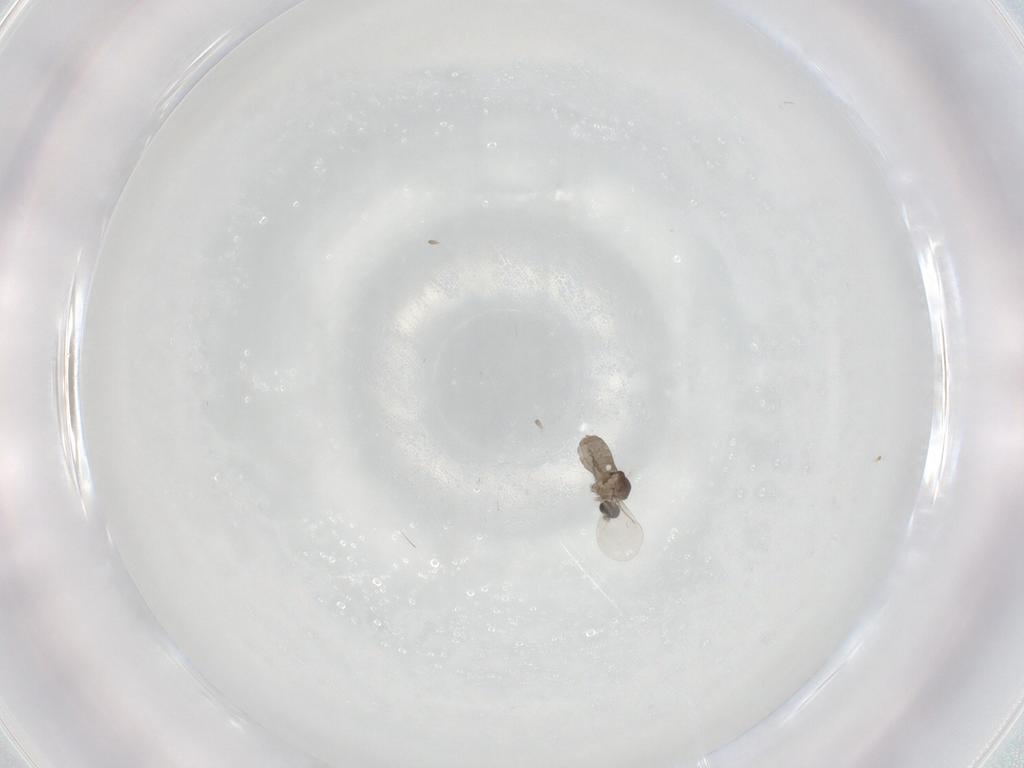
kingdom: Animalia
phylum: Arthropoda
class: Insecta
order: Diptera
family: Cecidomyiidae
